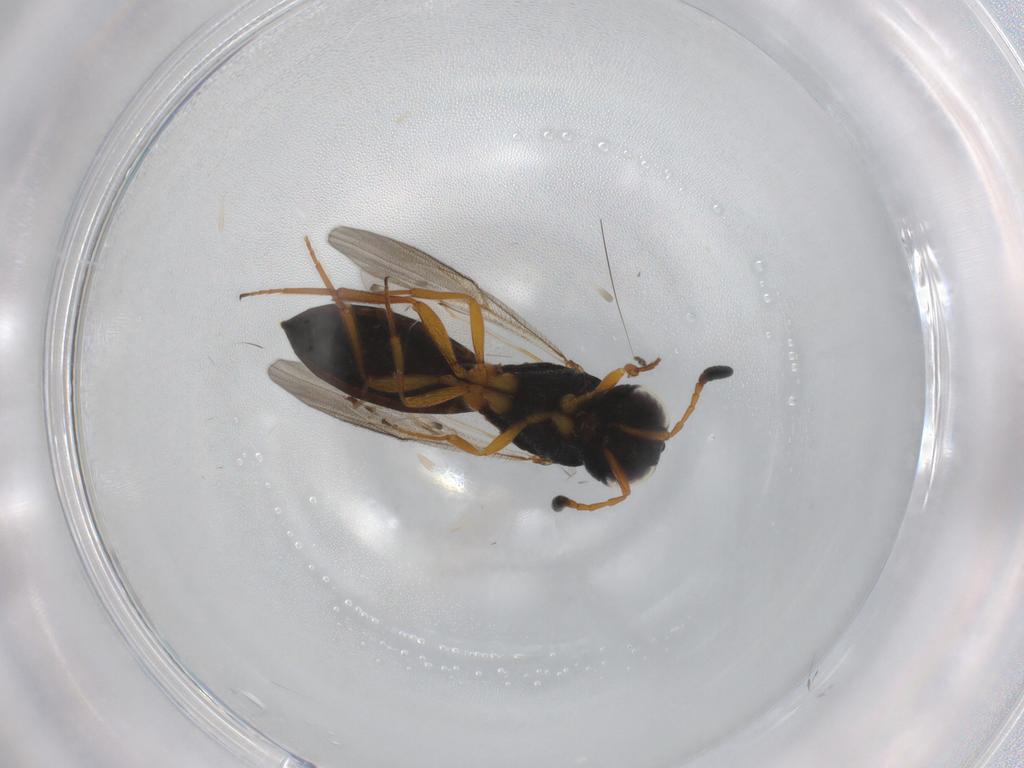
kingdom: Animalia
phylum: Arthropoda
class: Insecta
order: Hymenoptera
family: Scelionidae
